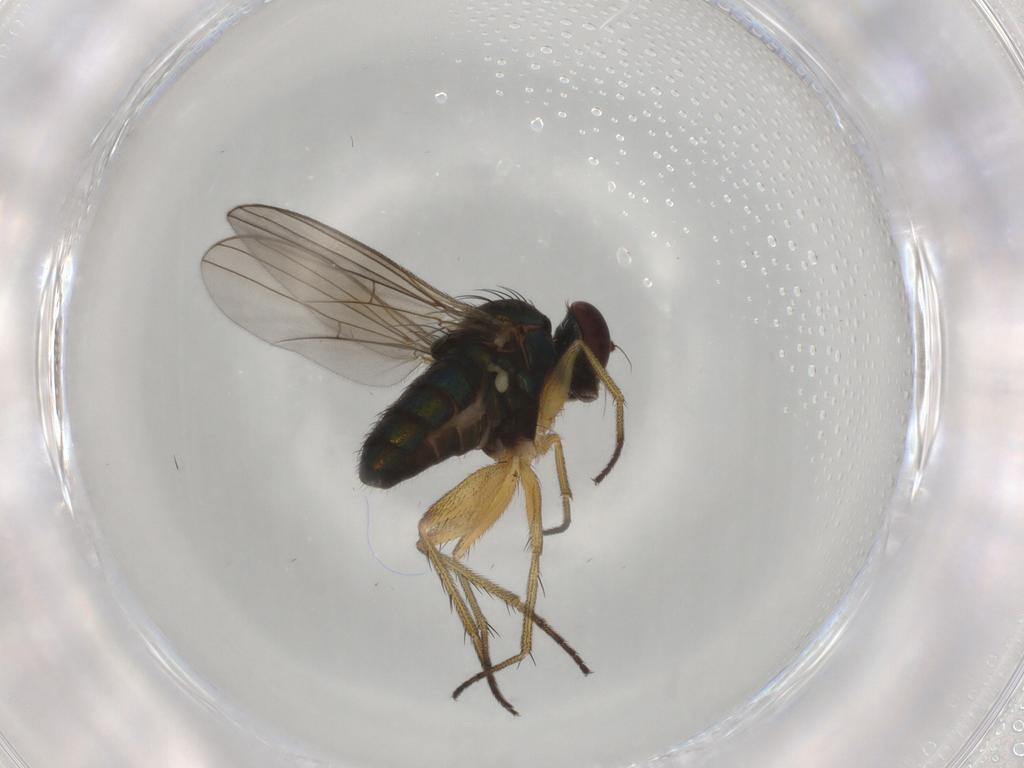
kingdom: Animalia
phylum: Arthropoda
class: Insecta
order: Diptera
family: Dolichopodidae
